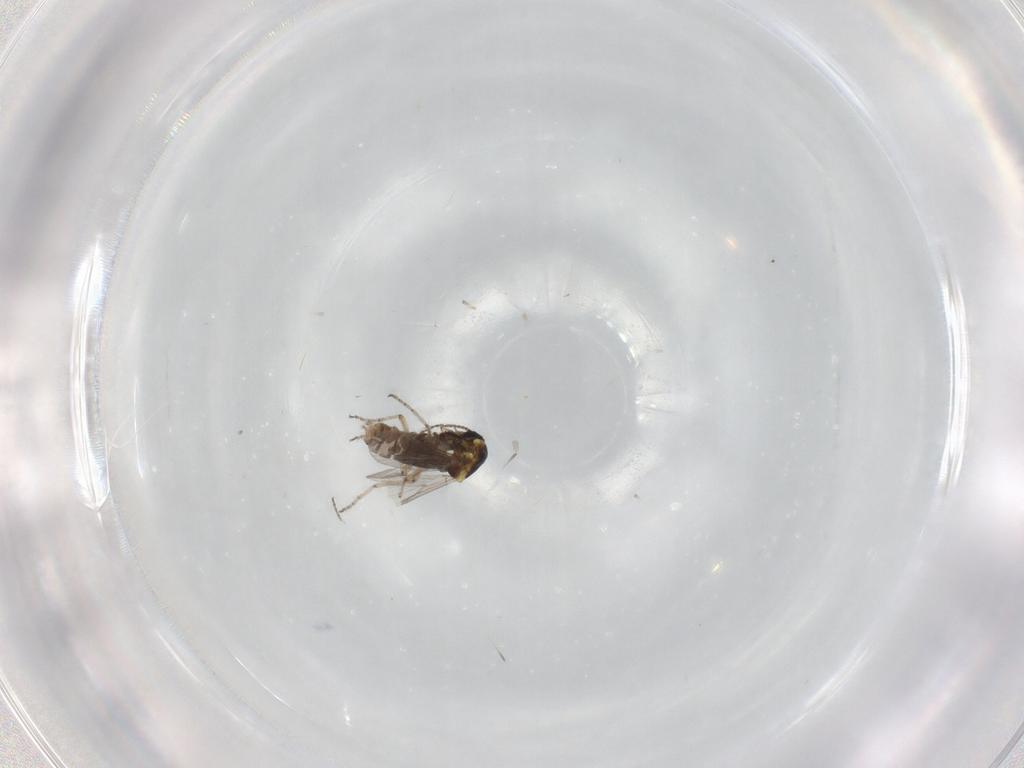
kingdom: Animalia
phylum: Arthropoda
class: Insecta
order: Diptera
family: Ceratopogonidae
